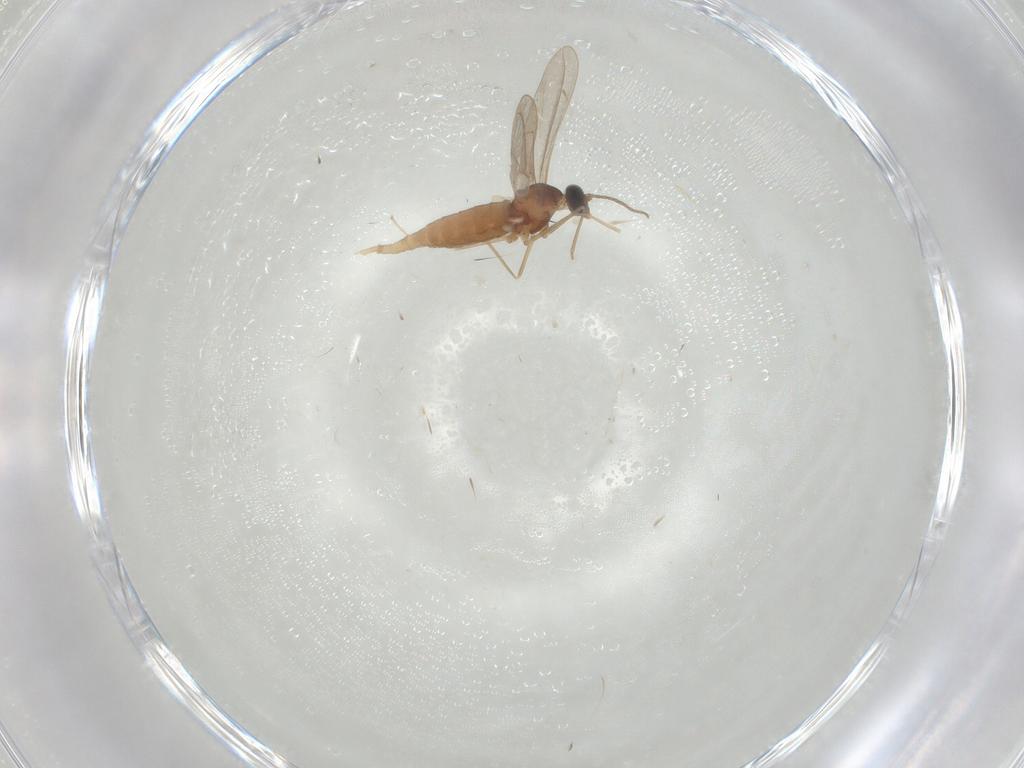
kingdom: Animalia
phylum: Arthropoda
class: Insecta
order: Diptera
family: Cecidomyiidae
